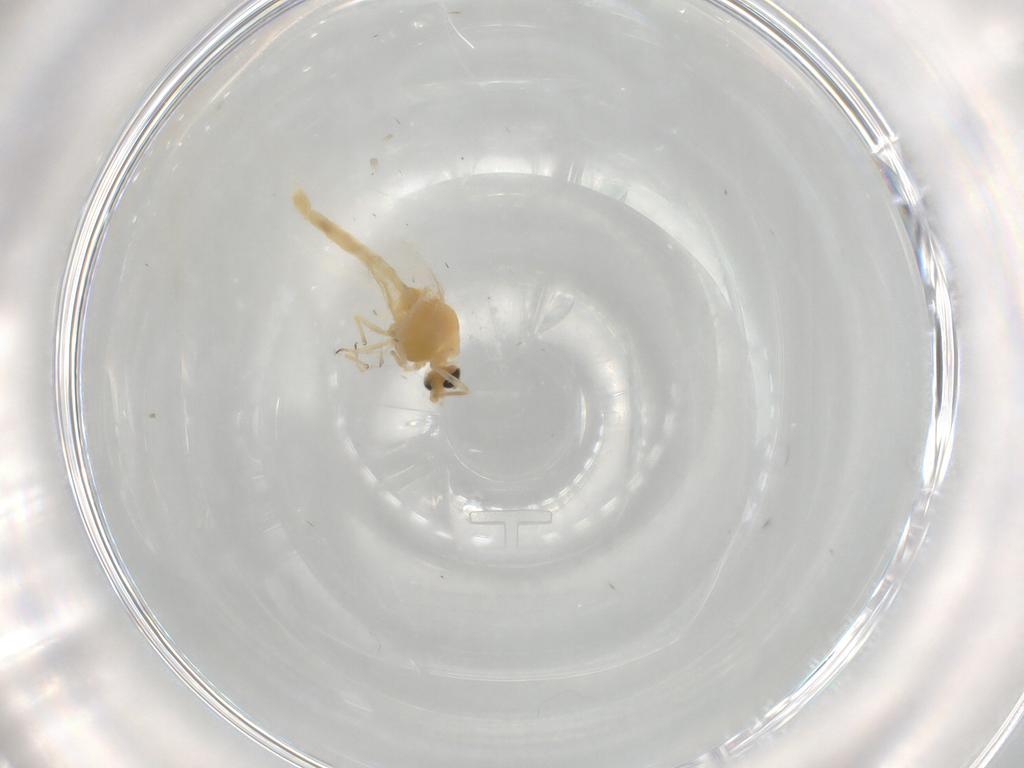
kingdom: Animalia
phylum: Arthropoda
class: Insecta
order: Diptera
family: Chironomidae
